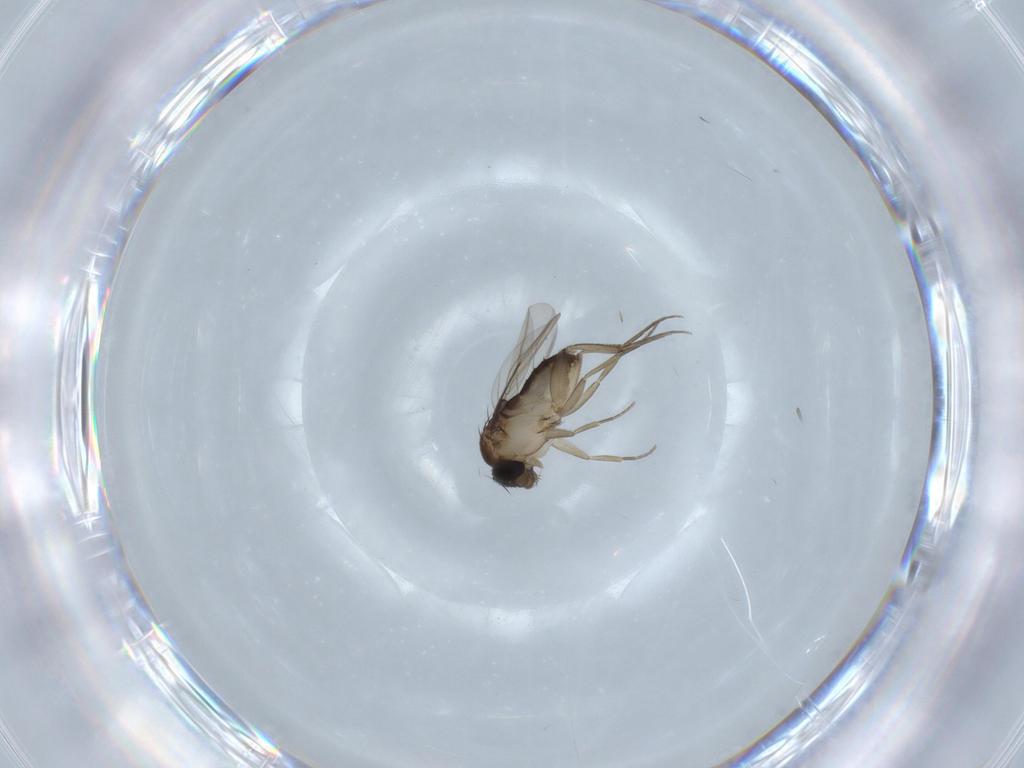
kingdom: Animalia
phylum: Arthropoda
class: Insecta
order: Diptera
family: Phoridae
